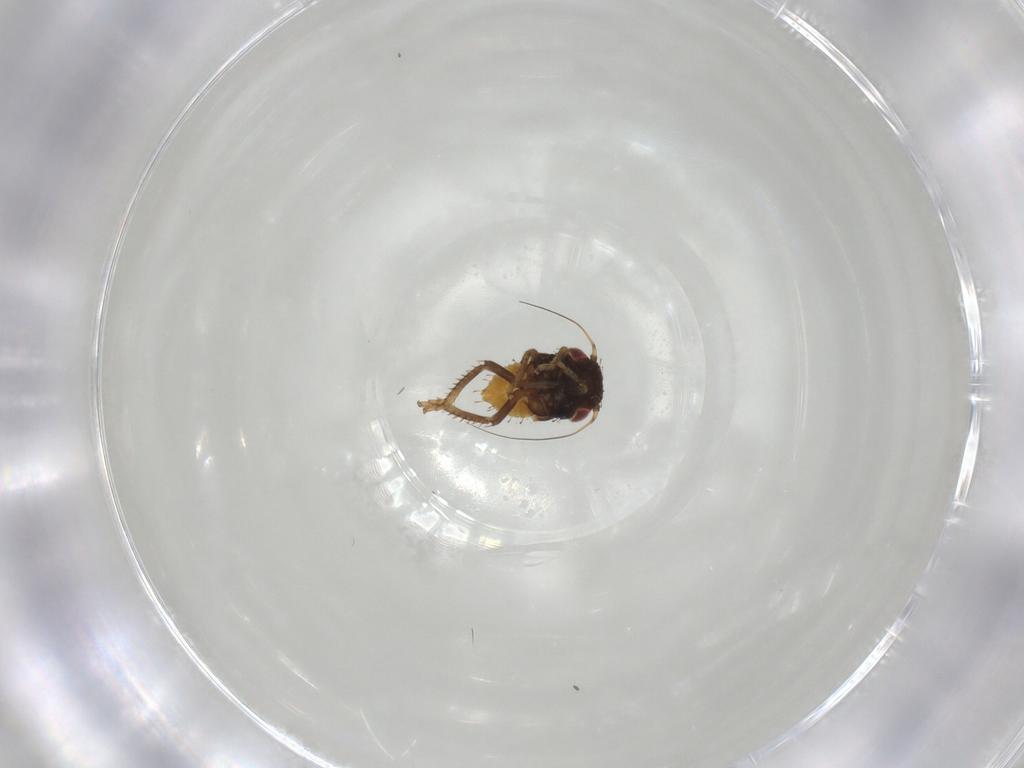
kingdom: Animalia
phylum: Arthropoda
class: Insecta
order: Hemiptera
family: Cicadellidae
